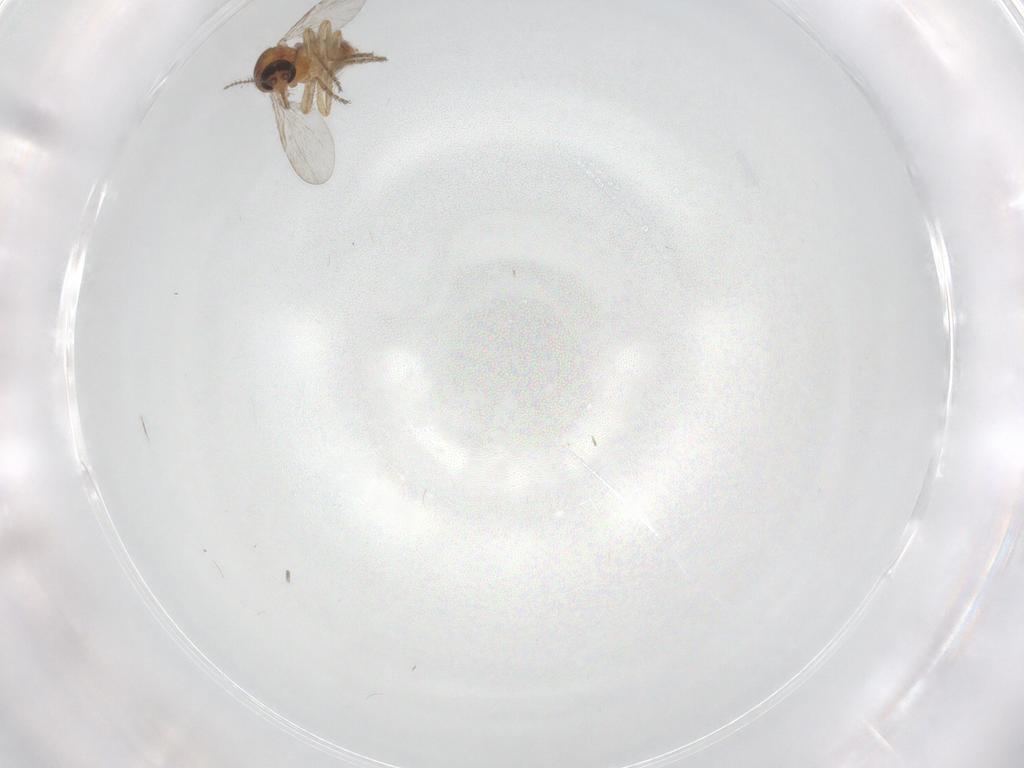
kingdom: Animalia
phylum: Arthropoda
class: Insecta
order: Diptera
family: Ceratopogonidae
